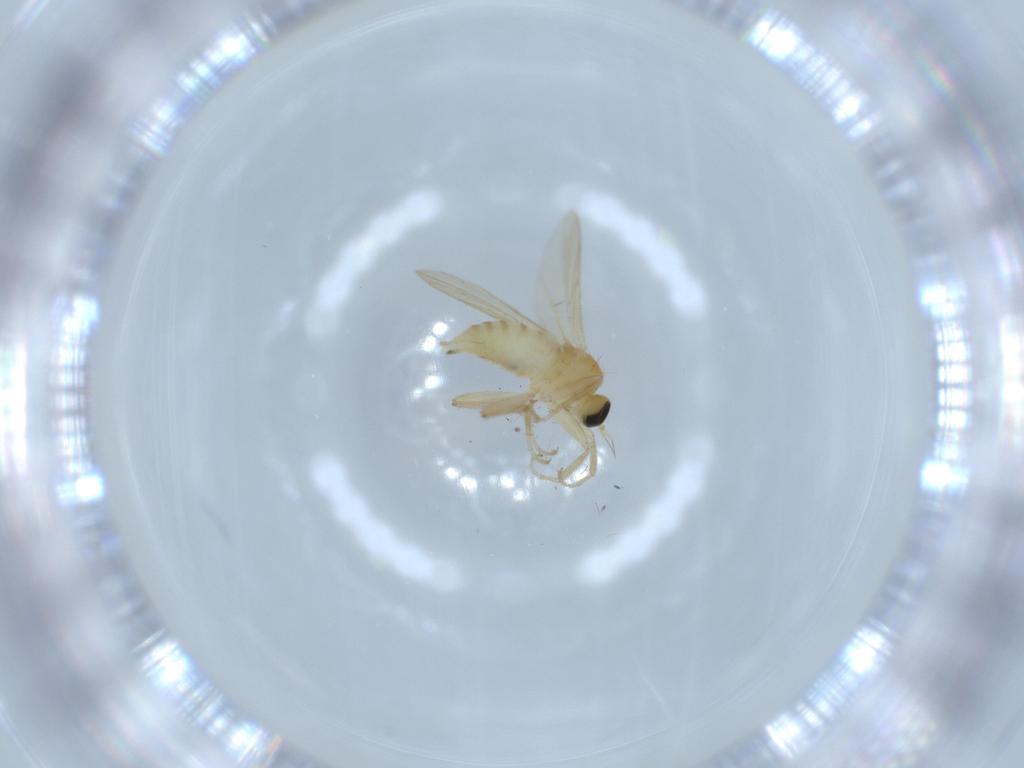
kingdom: Animalia
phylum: Arthropoda
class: Insecta
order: Diptera
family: Hybotidae
